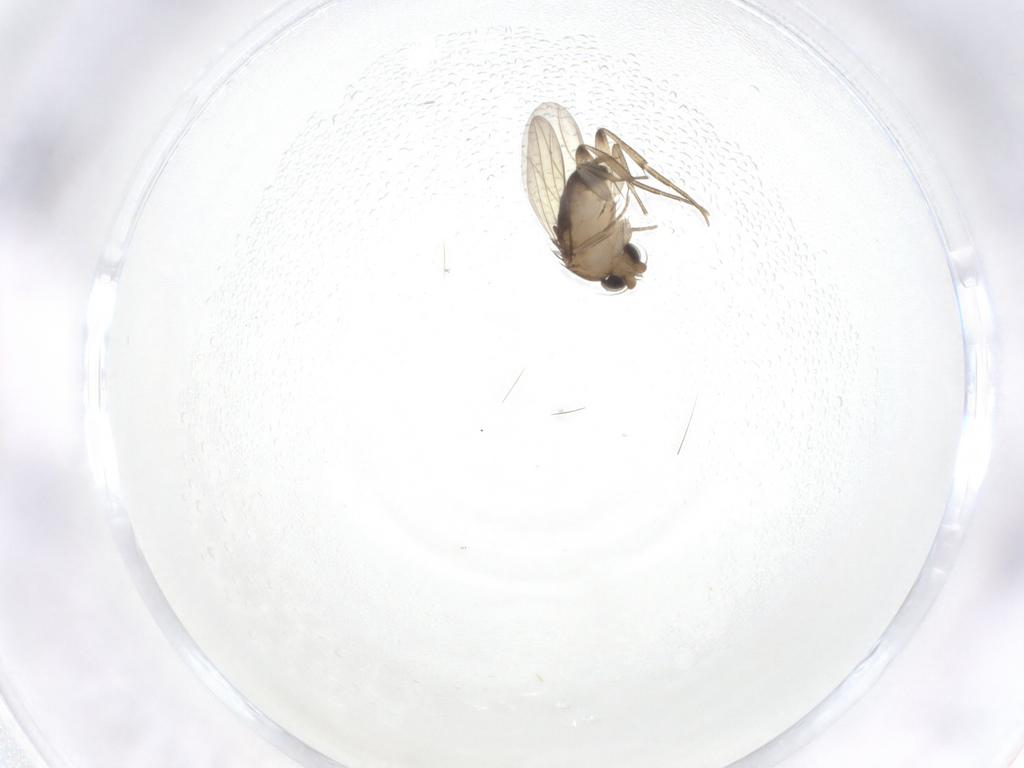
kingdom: Animalia
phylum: Arthropoda
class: Insecta
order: Diptera
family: Phoridae
